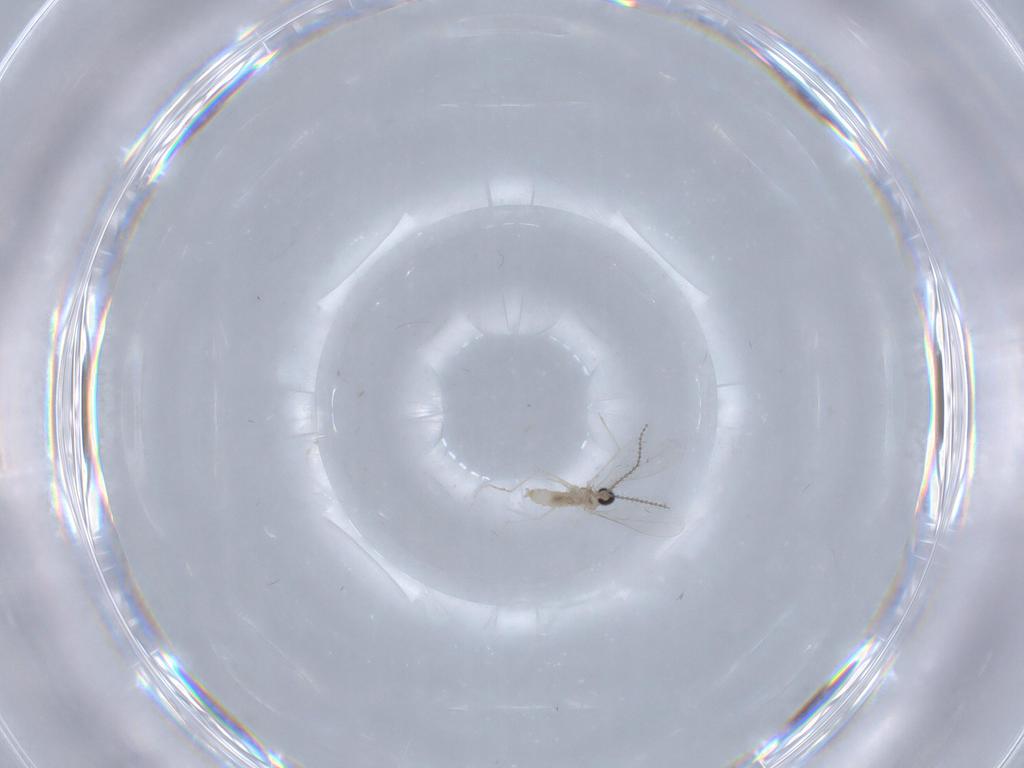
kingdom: Animalia
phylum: Arthropoda
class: Insecta
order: Diptera
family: Cecidomyiidae
